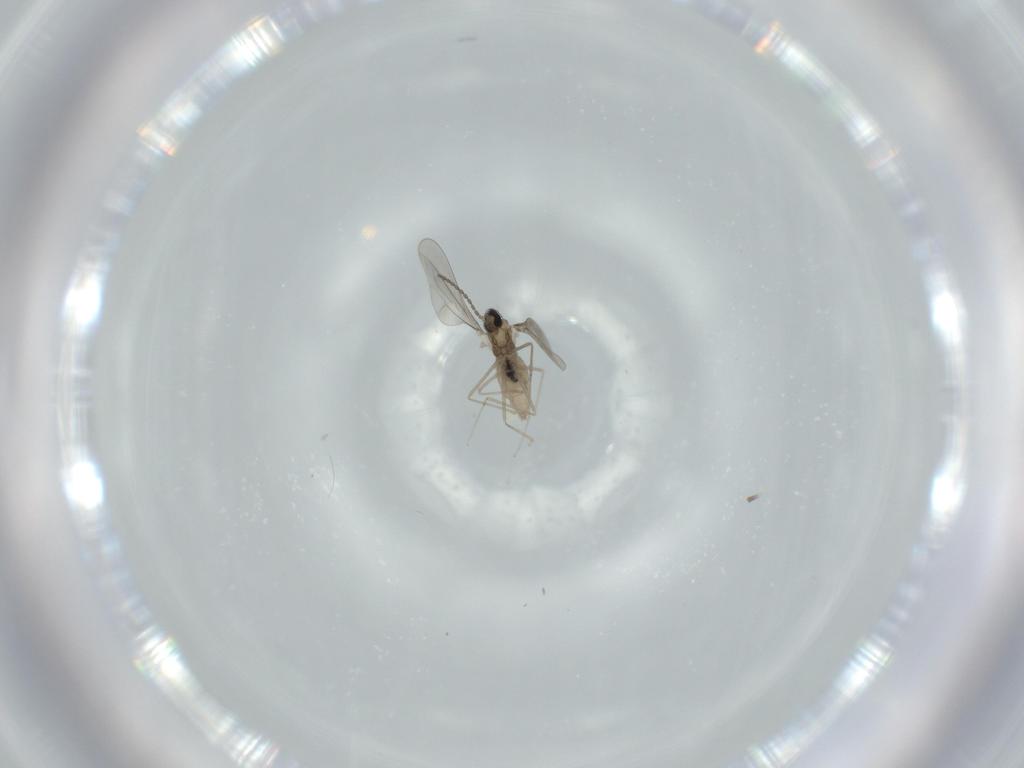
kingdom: Animalia
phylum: Arthropoda
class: Insecta
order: Diptera
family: Cecidomyiidae
